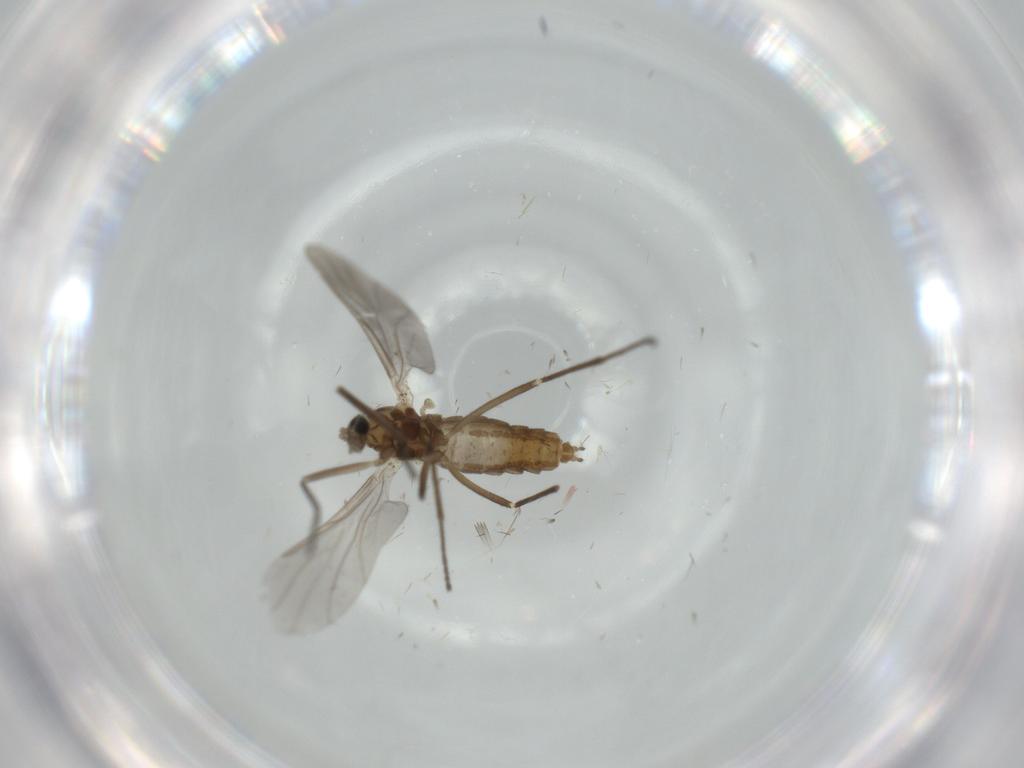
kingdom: Animalia
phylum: Arthropoda
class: Insecta
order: Diptera
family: Cecidomyiidae
